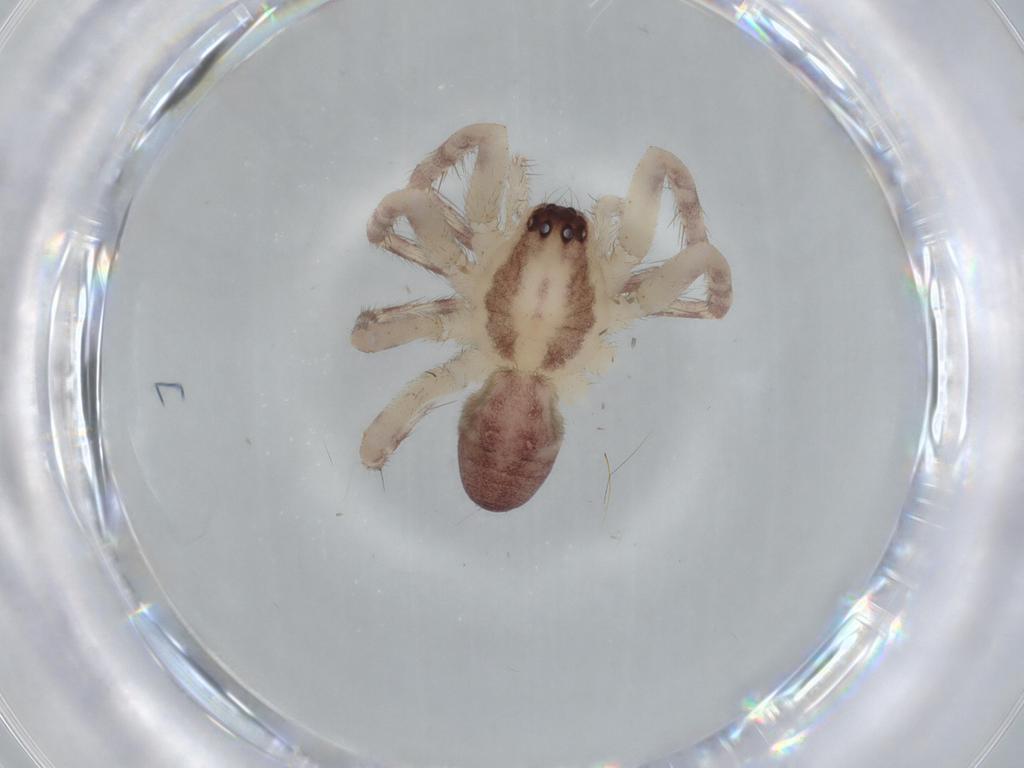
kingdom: Animalia
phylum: Arthropoda
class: Arachnida
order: Araneae
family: Corinnidae
